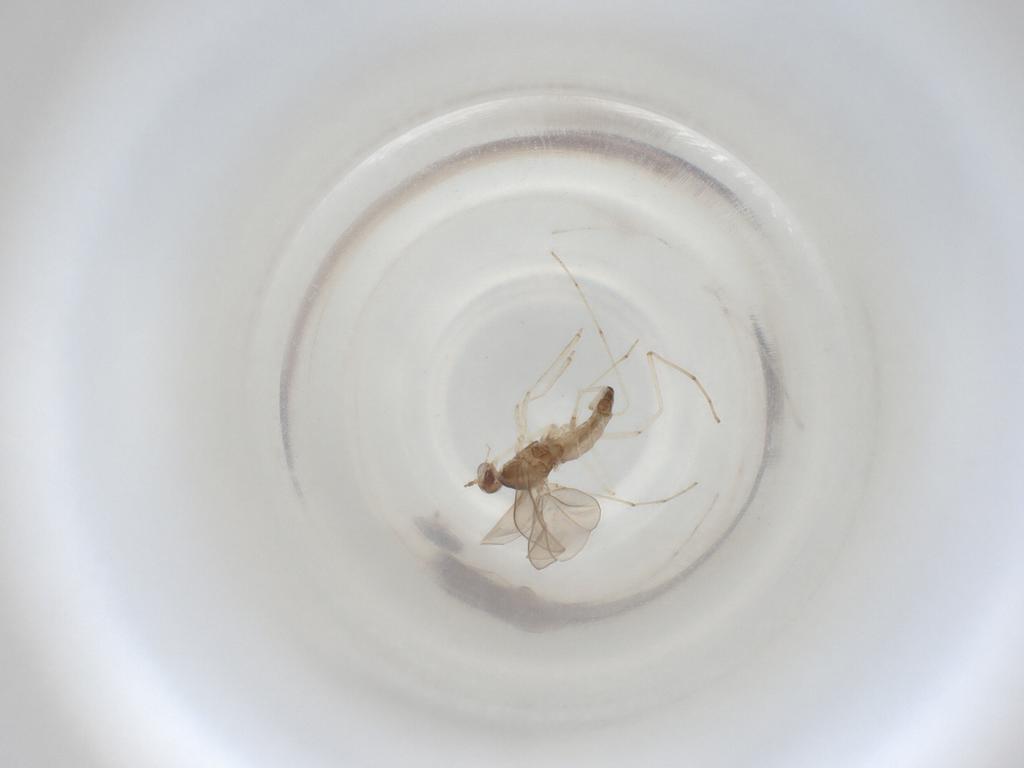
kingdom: Animalia
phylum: Arthropoda
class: Insecta
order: Diptera
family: Cecidomyiidae
